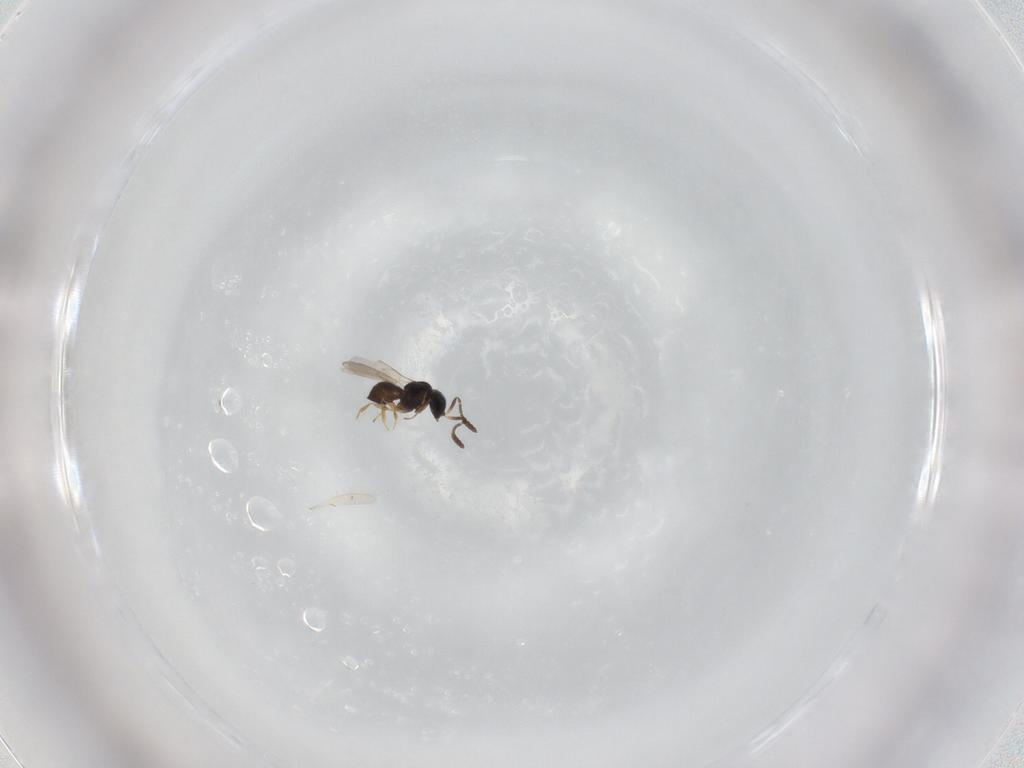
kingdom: Animalia
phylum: Arthropoda
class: Insecta
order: Hymenoptera
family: Scelionidae
